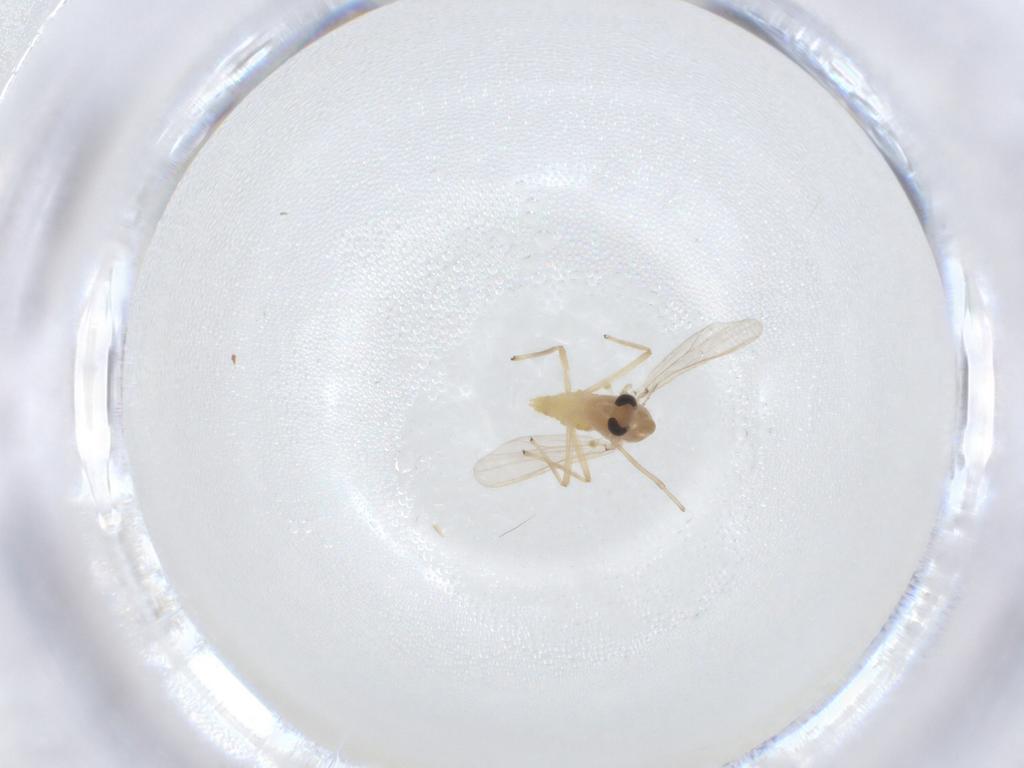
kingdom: Animalia
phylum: Arthropoda
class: Insecta
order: Diptera
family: Chironomidae
